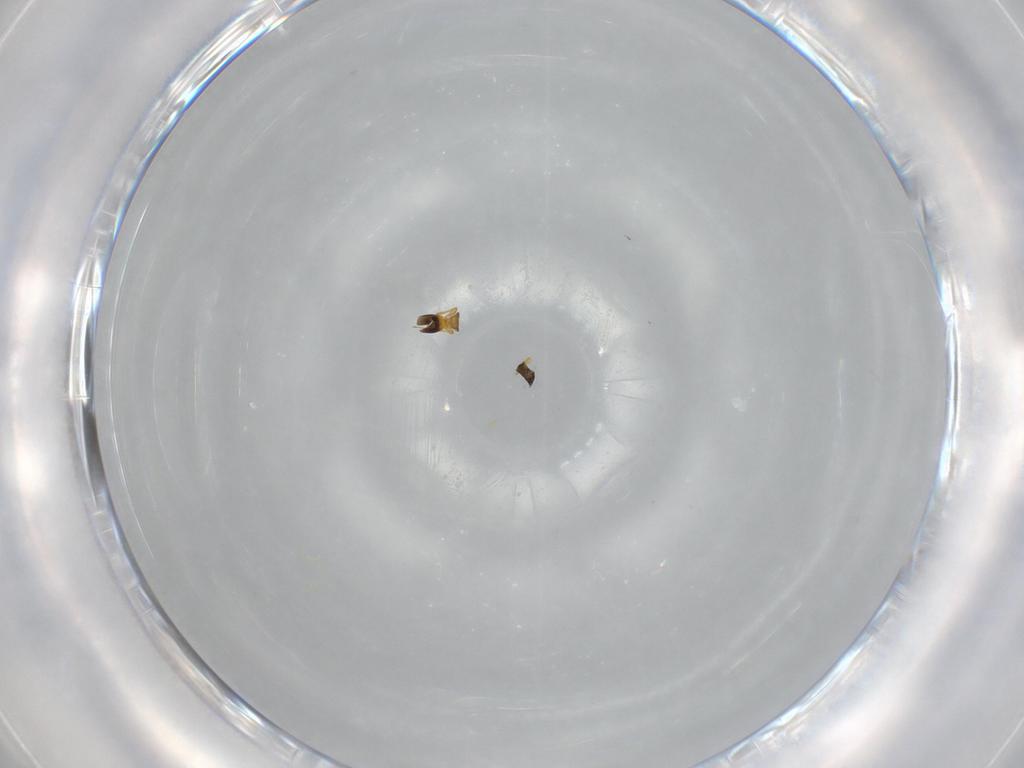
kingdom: Animalia
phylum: Arthropoda
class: Insecta
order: Hymenoptera
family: Platygastridae
